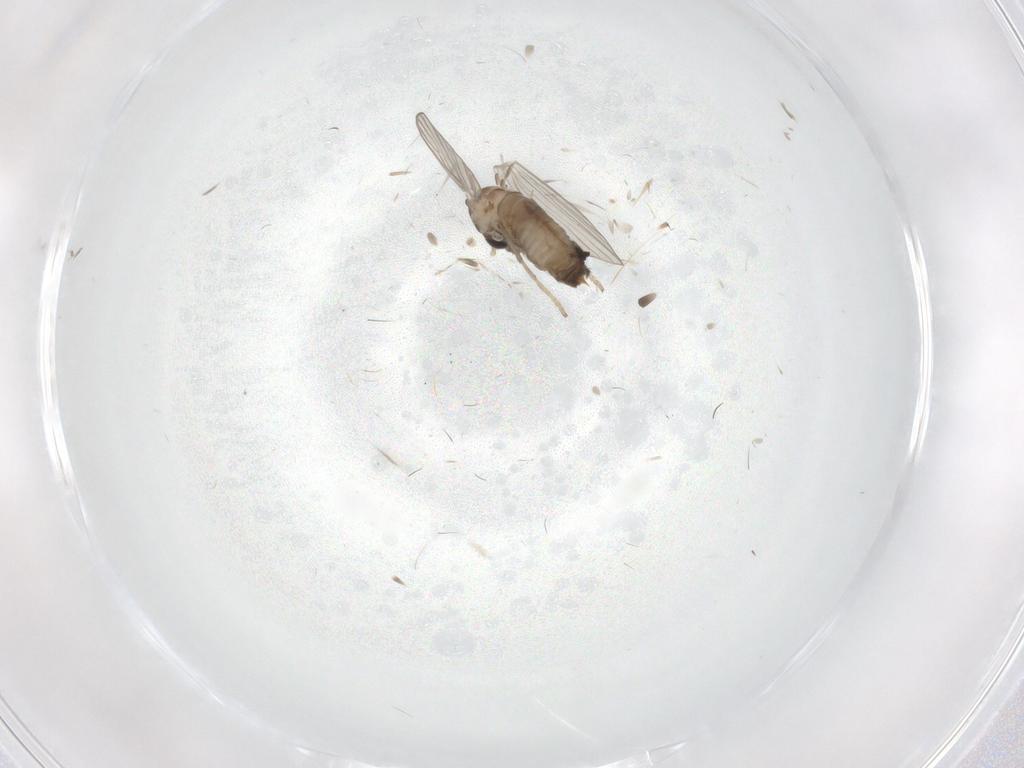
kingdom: Animalia
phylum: Arthropoda
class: Insecta
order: Diptera
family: Psychodidae
